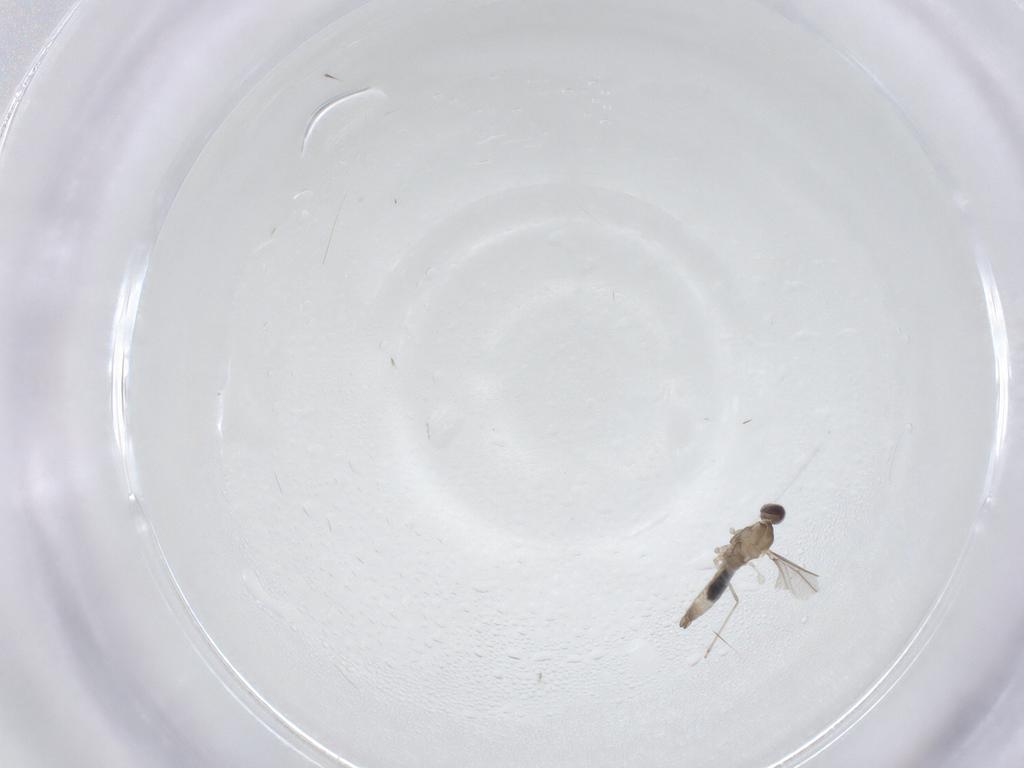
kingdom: Animalia
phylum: Arthropoda
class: Insecta
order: Diptera
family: Cecidomyiidae
